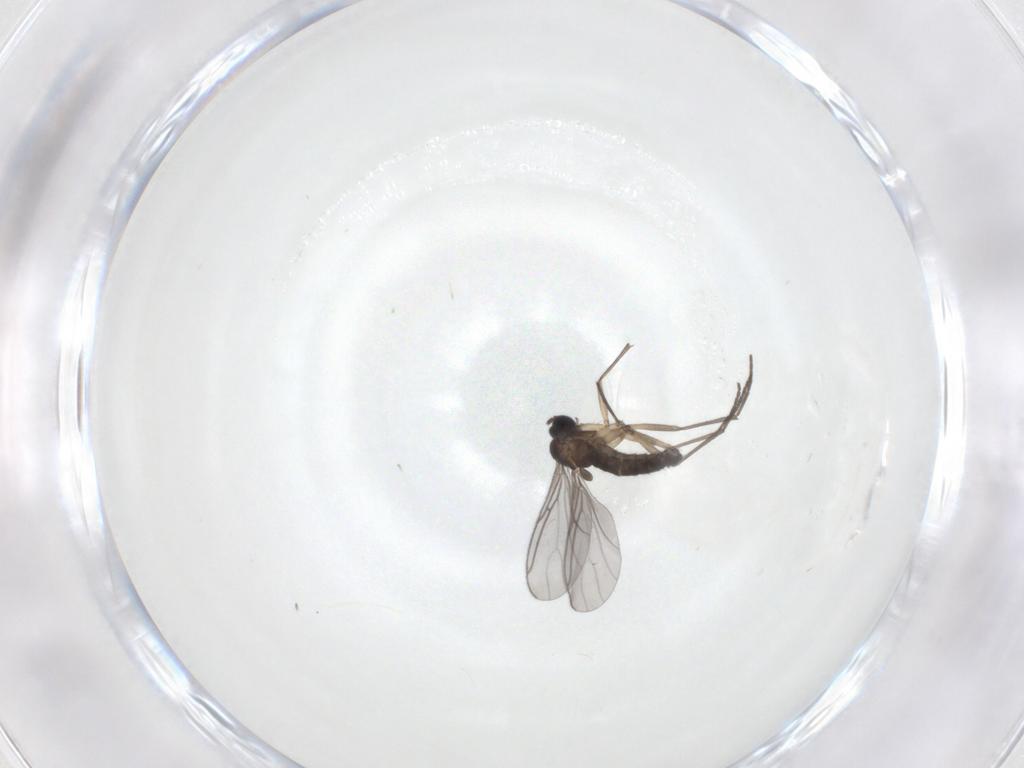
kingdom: Animalia
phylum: Arthropoda
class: Insecta
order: Diptera
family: Sciaridae
